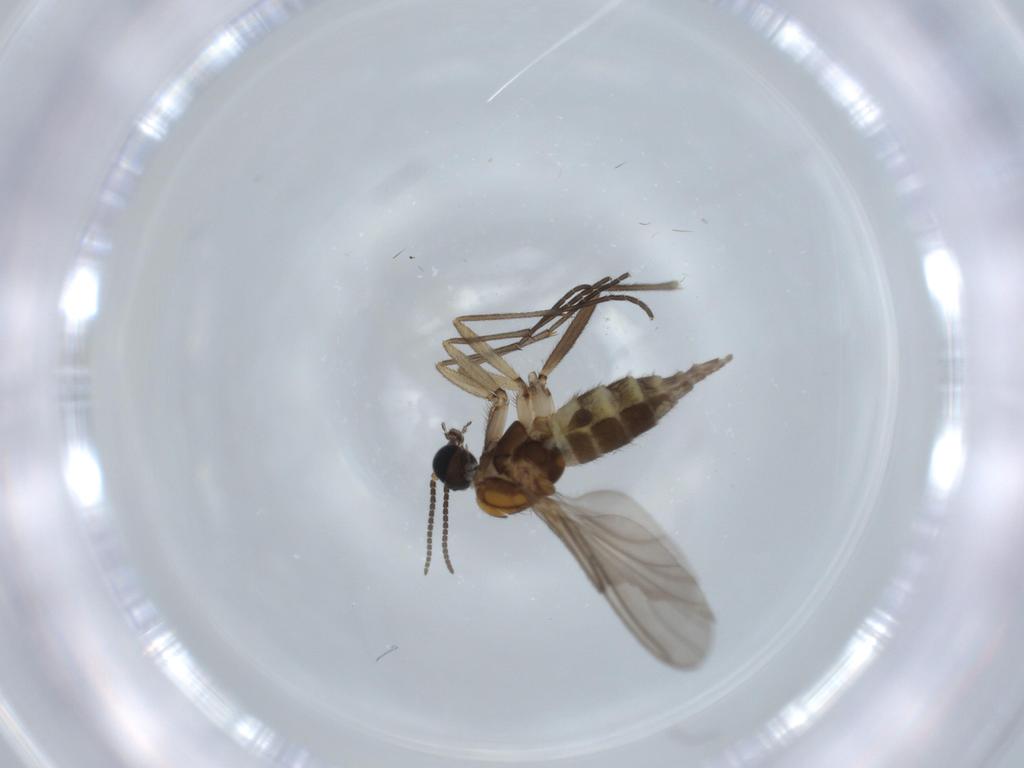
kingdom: Animalia
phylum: Arthropoda
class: Insecta
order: Diptera
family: Sciaridae
